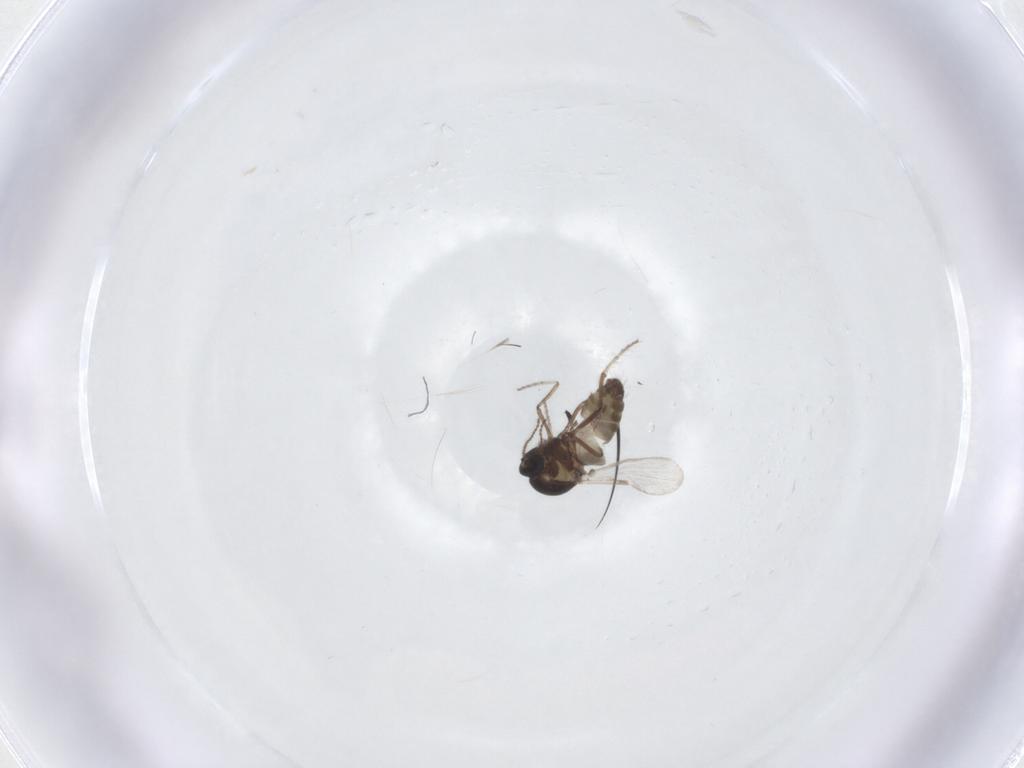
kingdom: Animalia
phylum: Arthropoda
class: Insecta
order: Diptera
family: Ceratopogonidae
